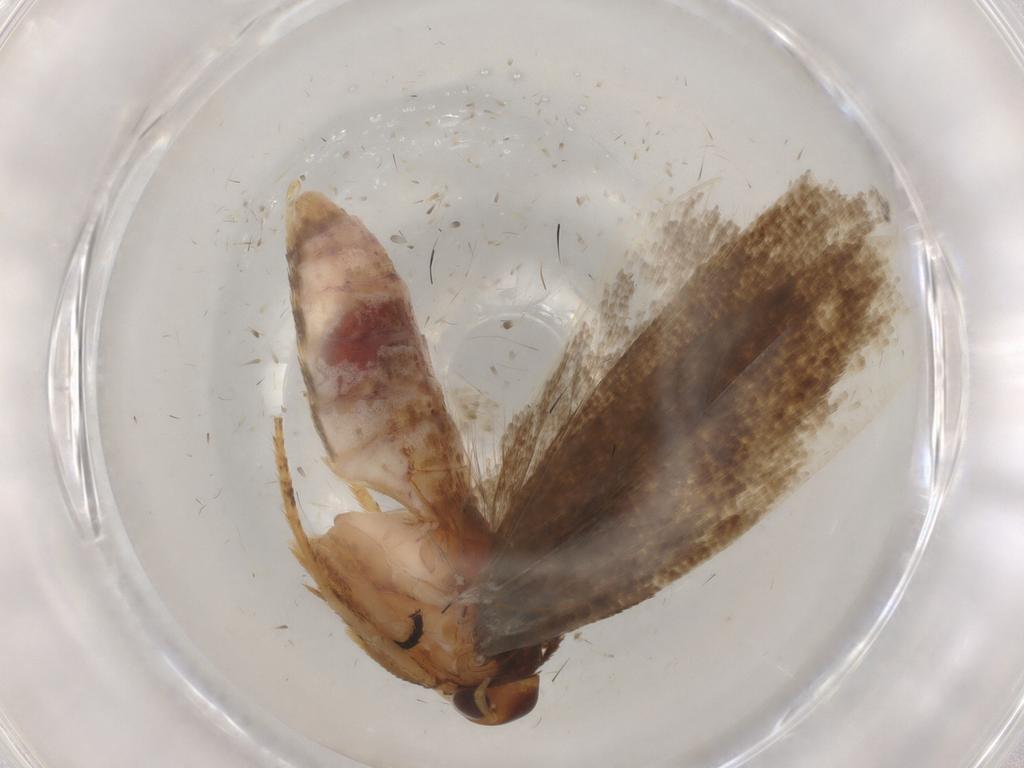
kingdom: Animalia
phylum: Arthropoda
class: Insecta
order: Lepidoptera
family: Gelechiidae
